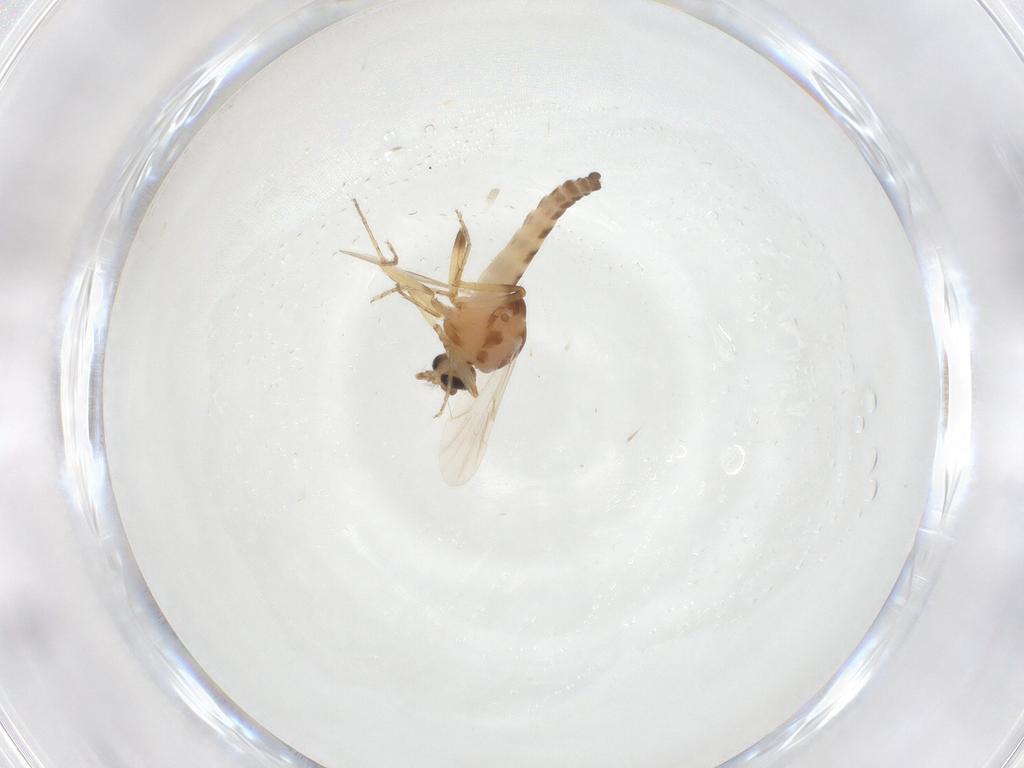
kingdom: Animalia
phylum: Arthropoda
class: Insecta
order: Diptera
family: Ceratopogonidae
